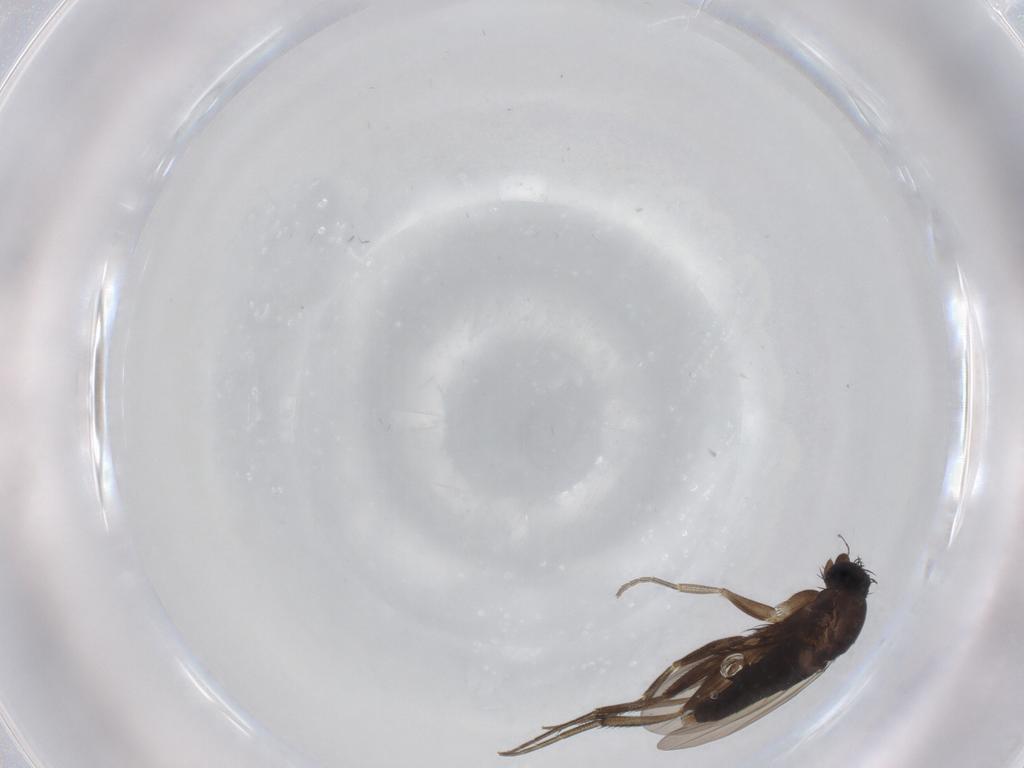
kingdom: Animalia
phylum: Arthropoda
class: Insecta
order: Diptera
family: Phoridae
